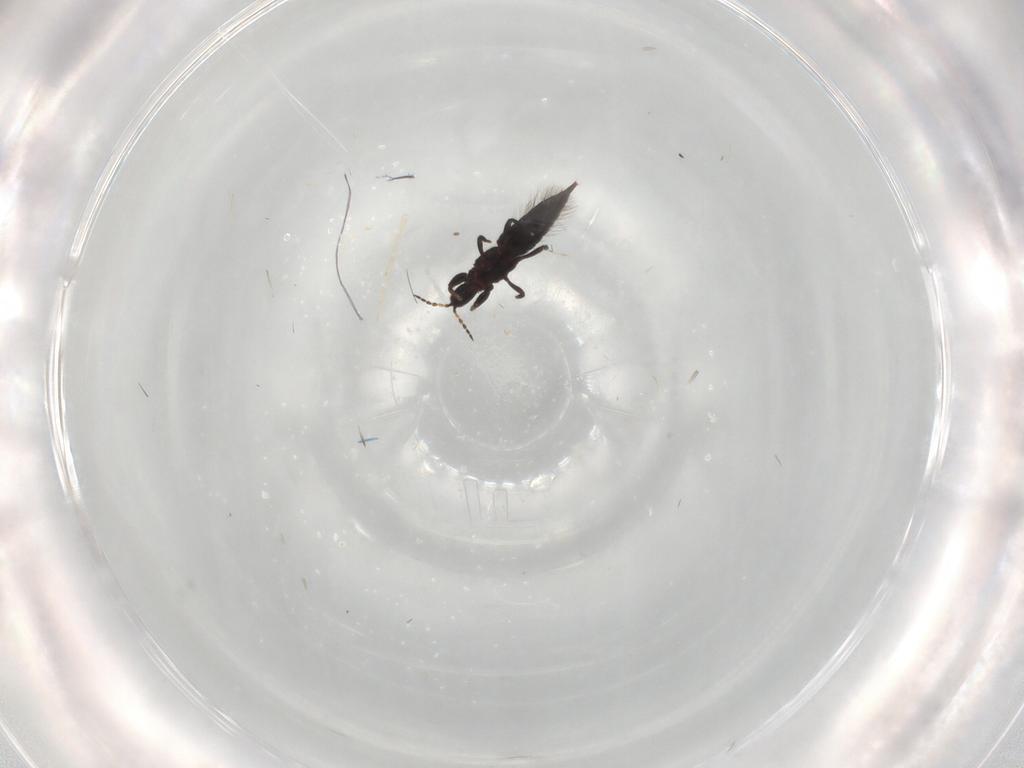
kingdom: Animalia
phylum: Arthropoda
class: Insecta
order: Thysanoptera
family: Phlaeothripidae
